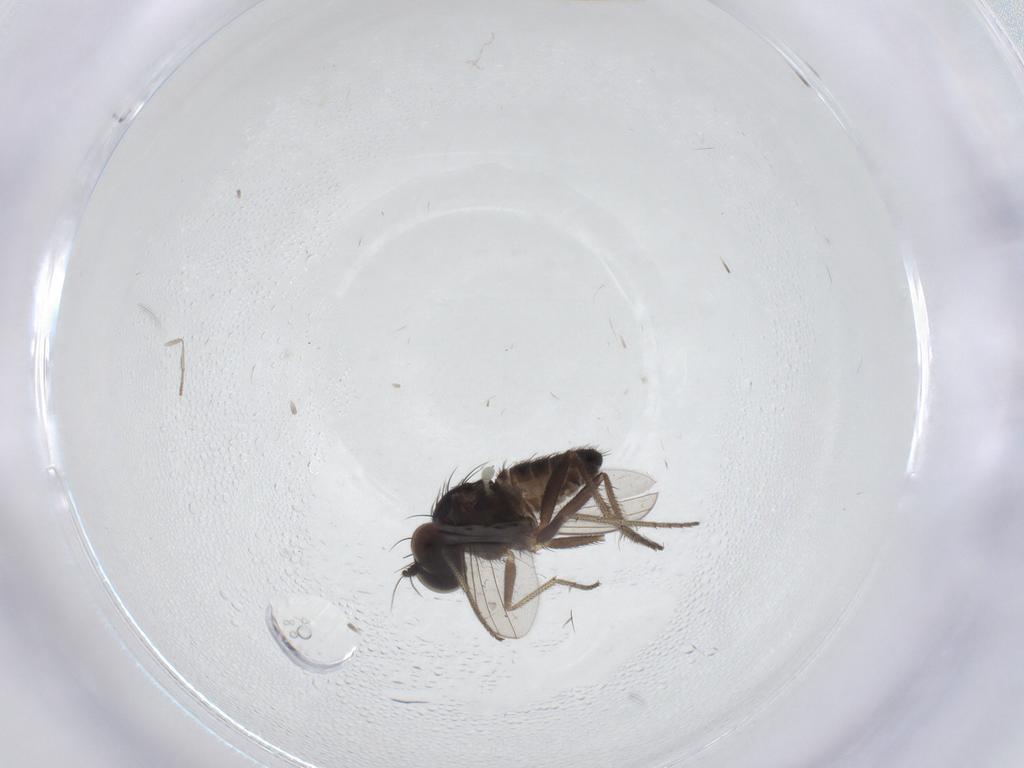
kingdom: Animalia
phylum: Arthropoda
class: Insecta
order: Diptera
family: Sciaridae
